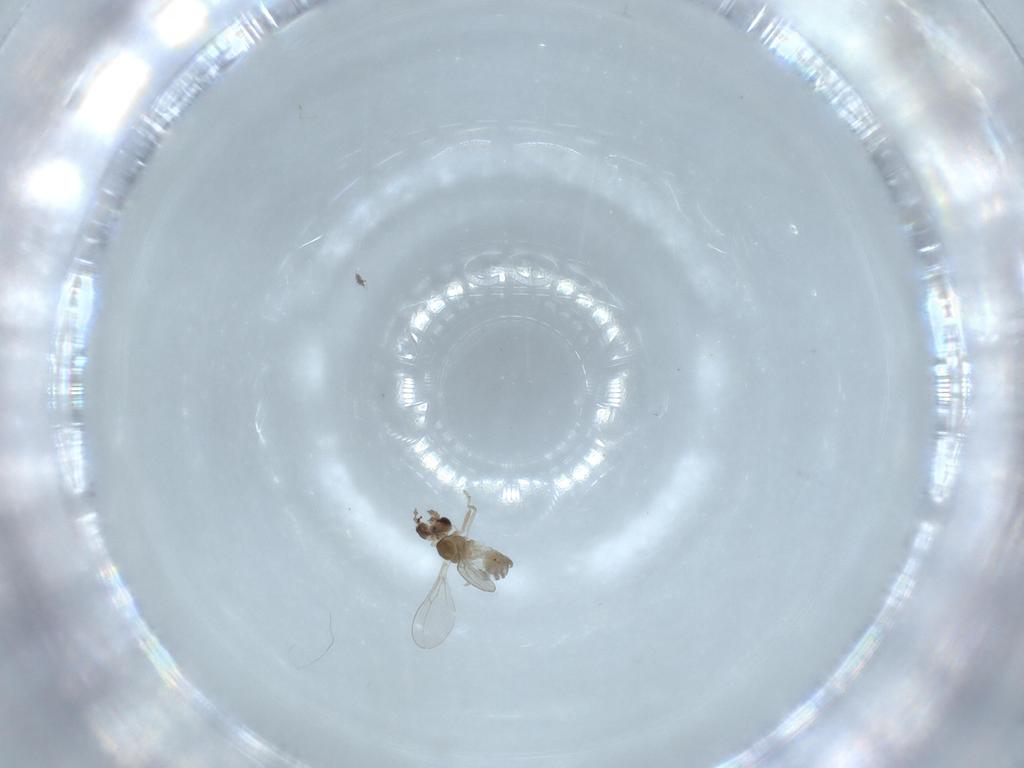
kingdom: Animalia
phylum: Arthropoda
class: Insecta
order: Diptera
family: Cecidomyiidae
